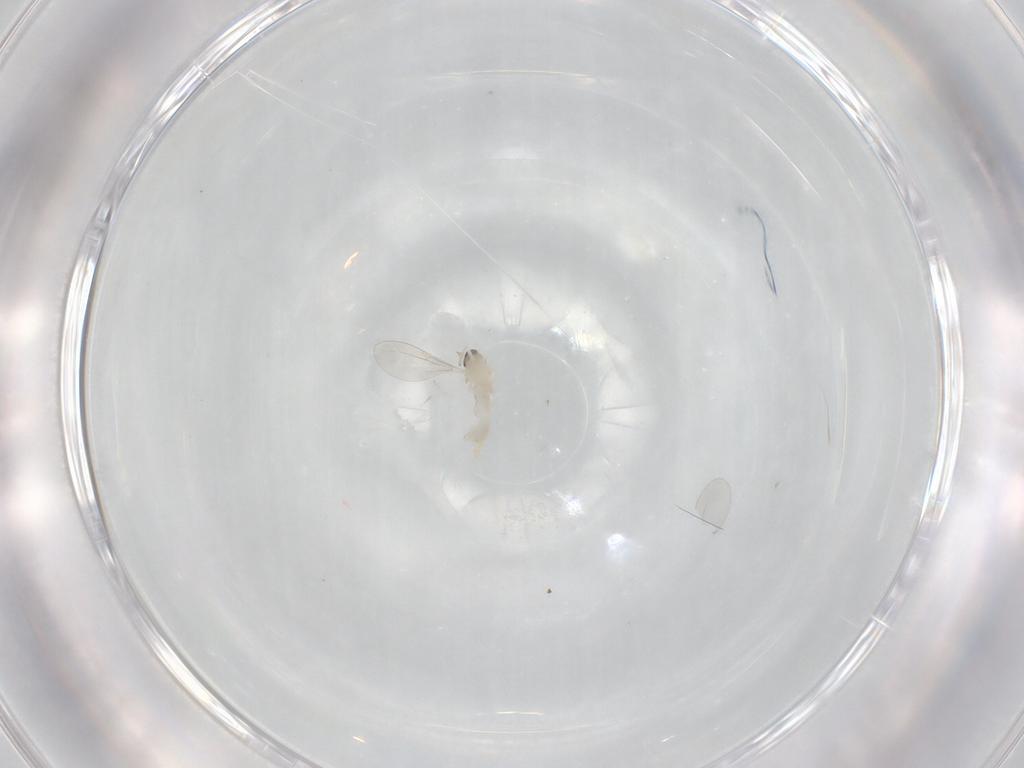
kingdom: Animalia
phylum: Arthropoda
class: Insecta
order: Diptera
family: Cecidomyiidae
